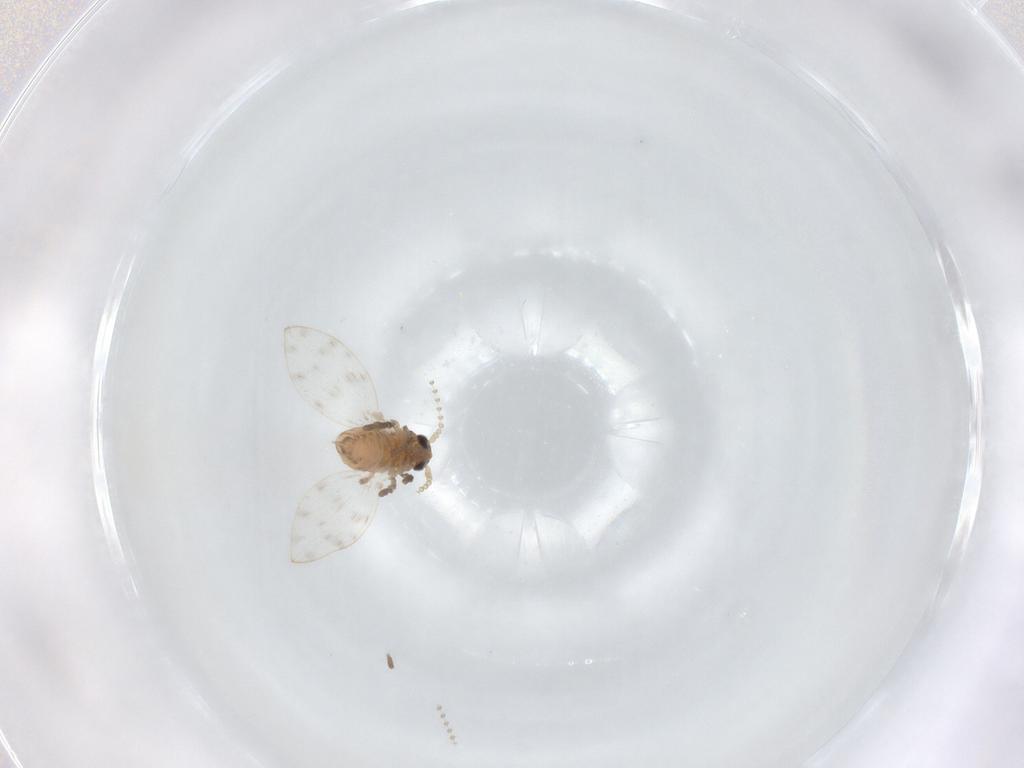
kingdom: Animalia
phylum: Arthropoda
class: Insecta
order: Diptera
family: Psychodidae
